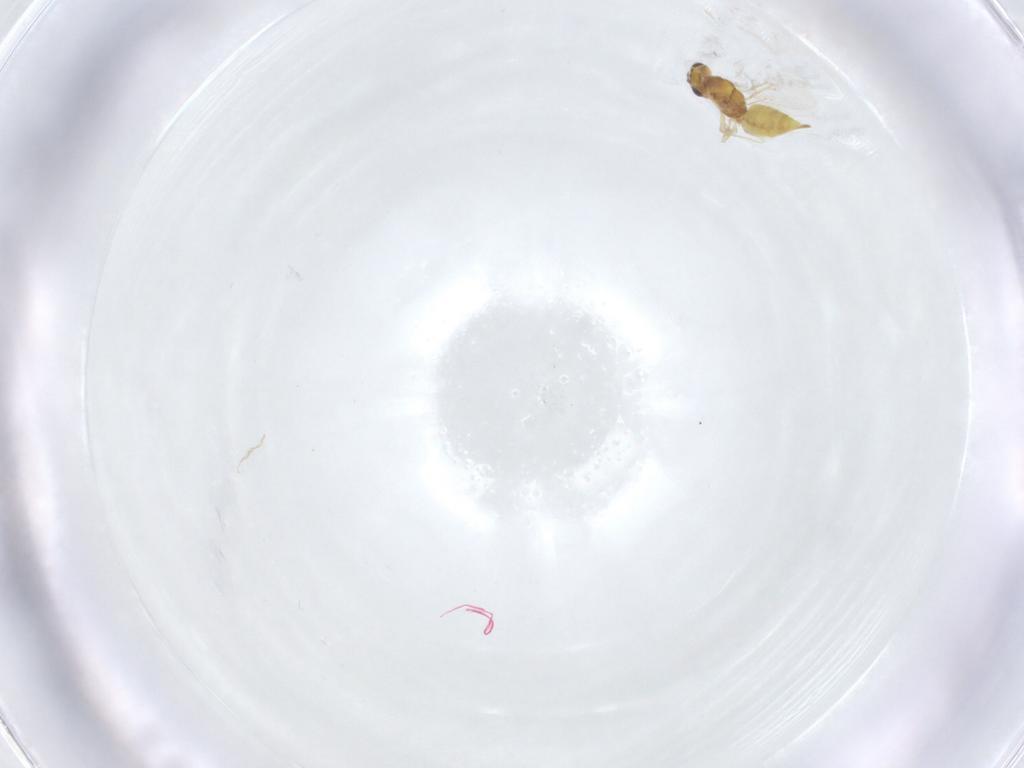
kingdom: Animalia
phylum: Arthropoda
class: Insecta
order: Hymenoptera
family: Eulophidae
